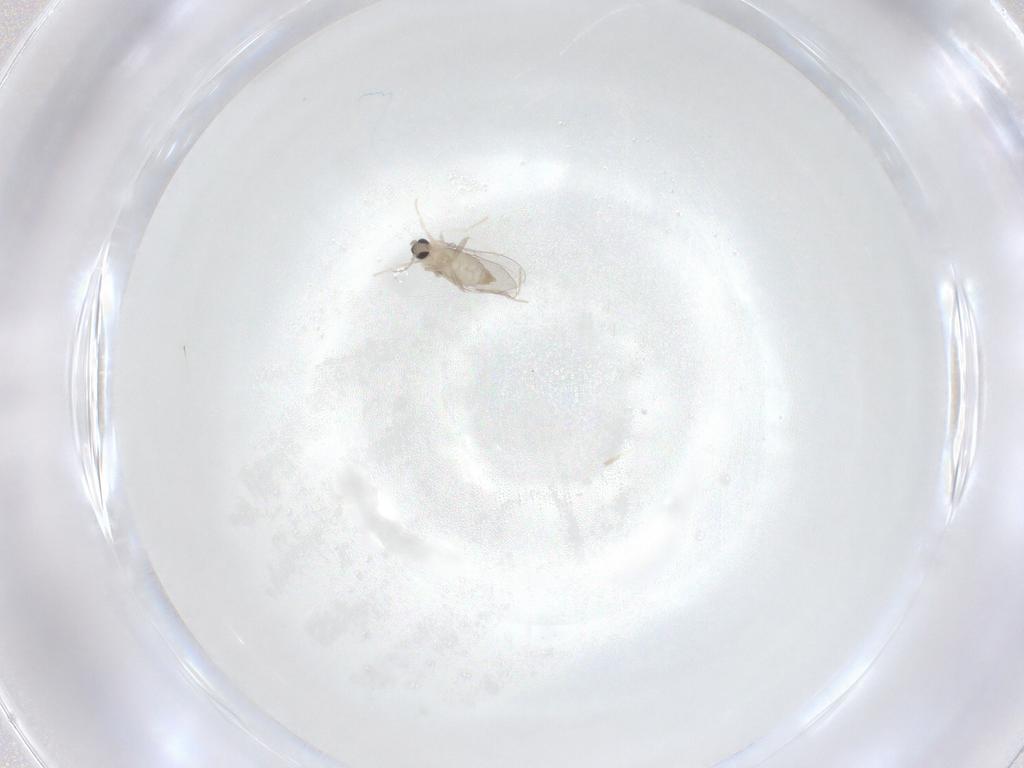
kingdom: Animalia
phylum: Arthropoda
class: Insecta
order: Diptera
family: Cecidomyiidae
